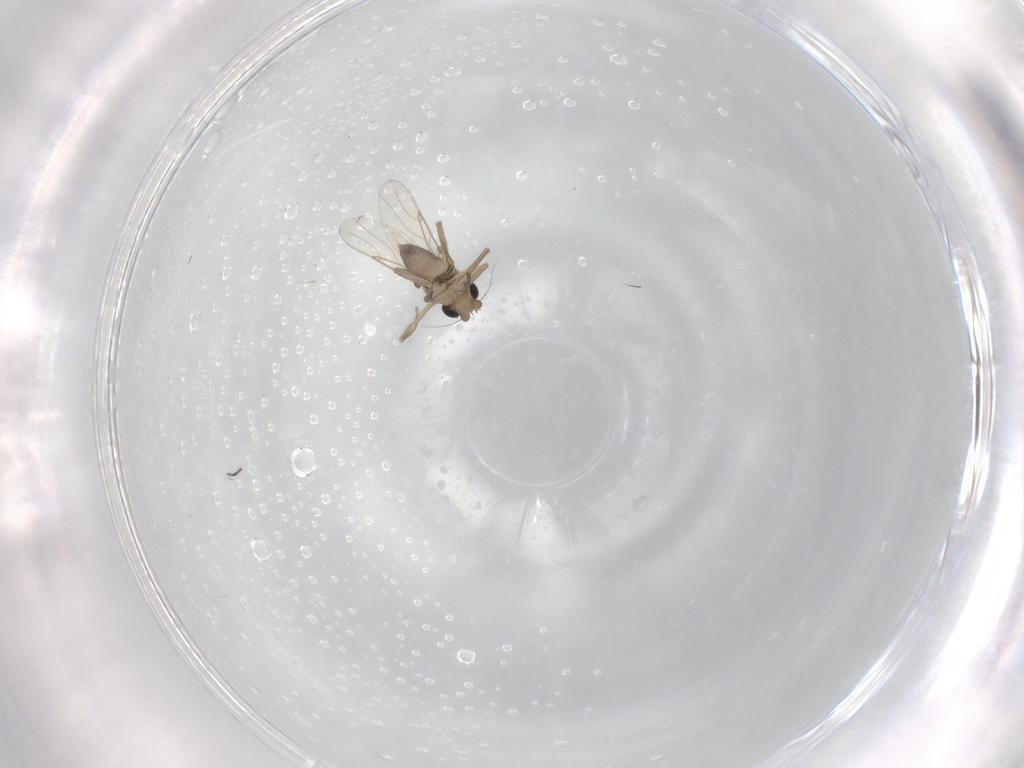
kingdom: Animalia
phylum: Arthropoda
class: Insecta
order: Diptera
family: Phoridae
